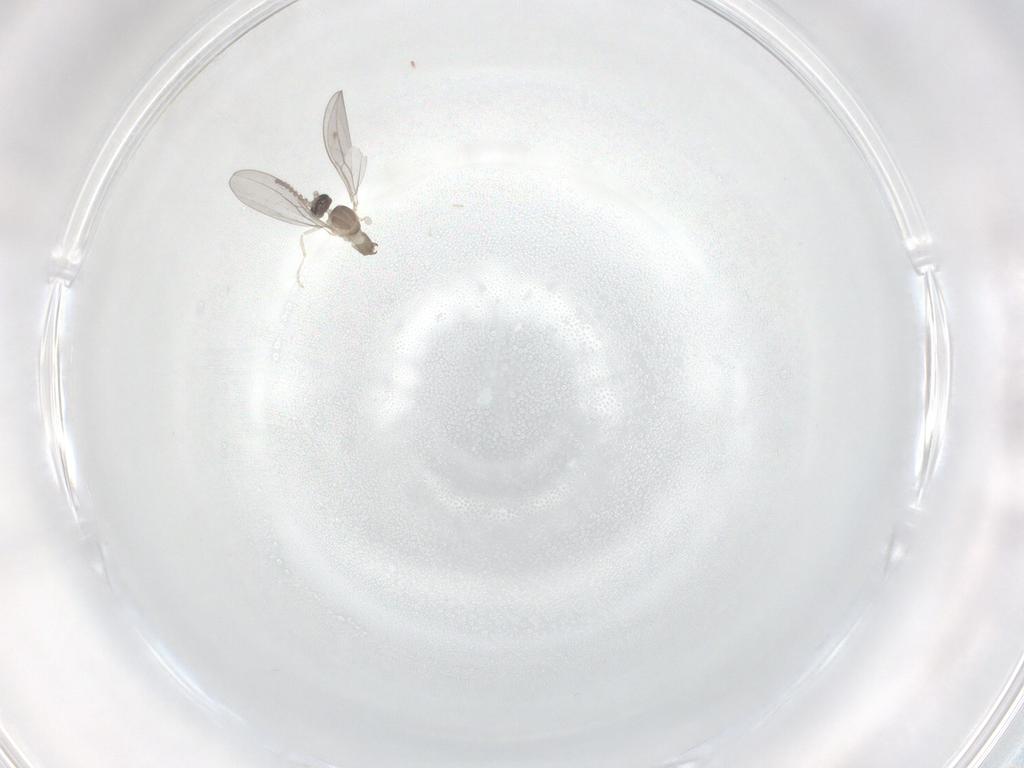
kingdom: Animalia
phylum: Arthropoda
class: Insecta
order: Diptera
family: Cecidomyiidae
